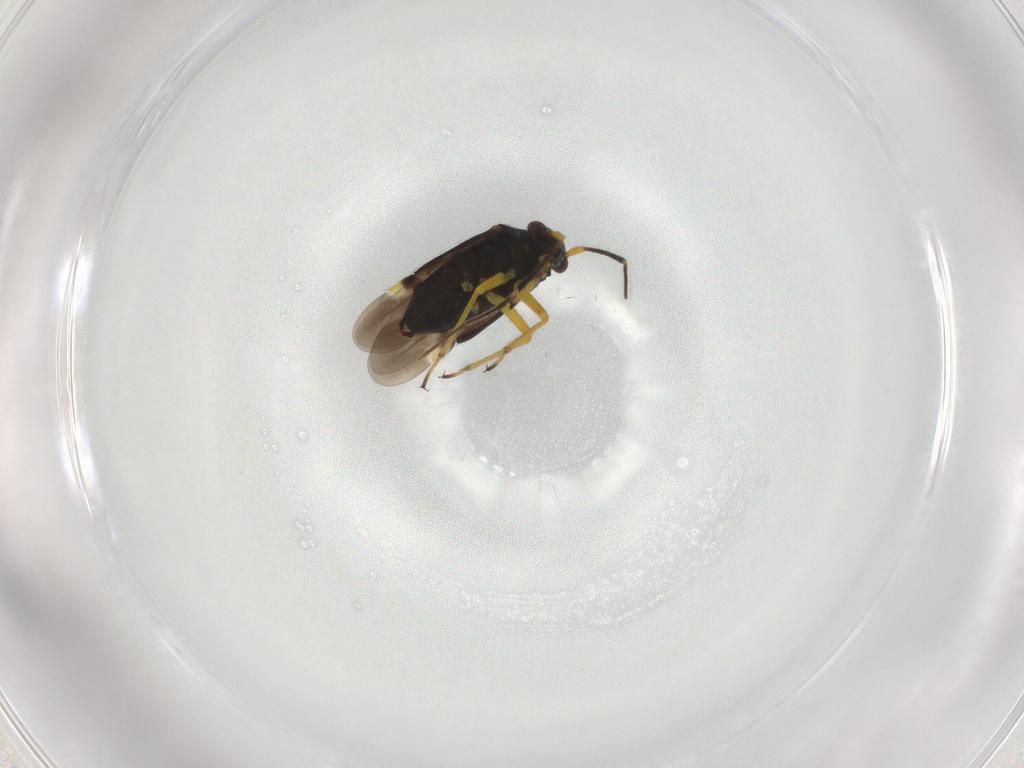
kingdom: Animalia
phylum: Arthropoda
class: Insecta
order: Hemiptera
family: Miridae
